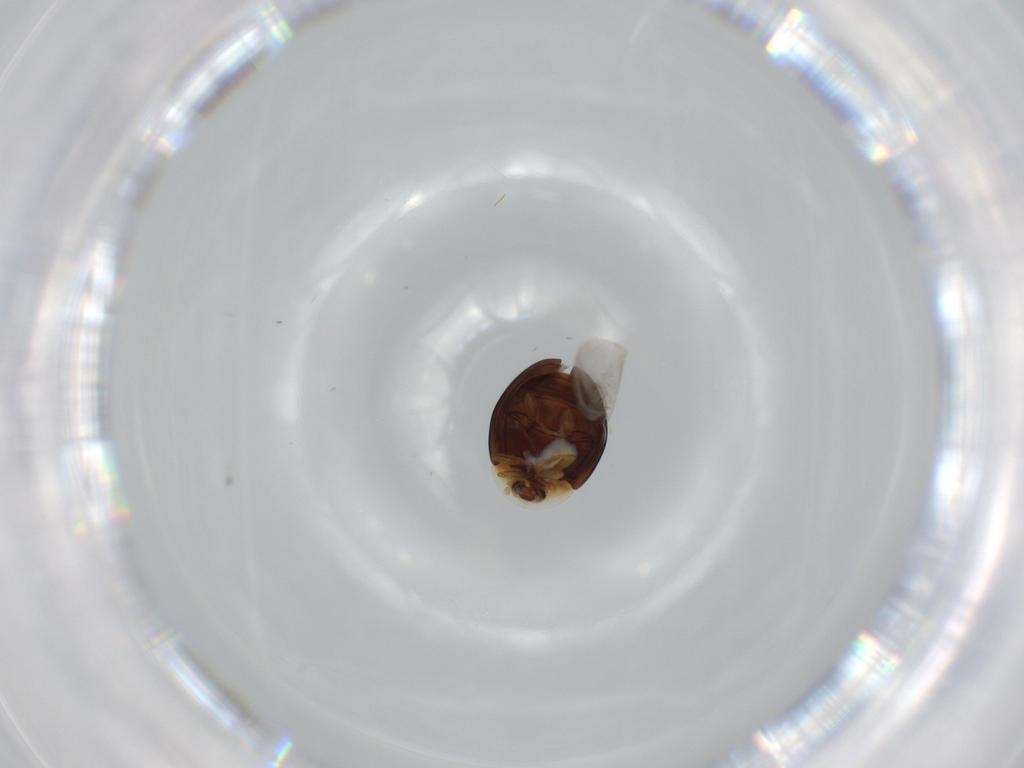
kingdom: Animalia
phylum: Arthropoda
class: Insecta
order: Coleoptera
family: Corylophidae
